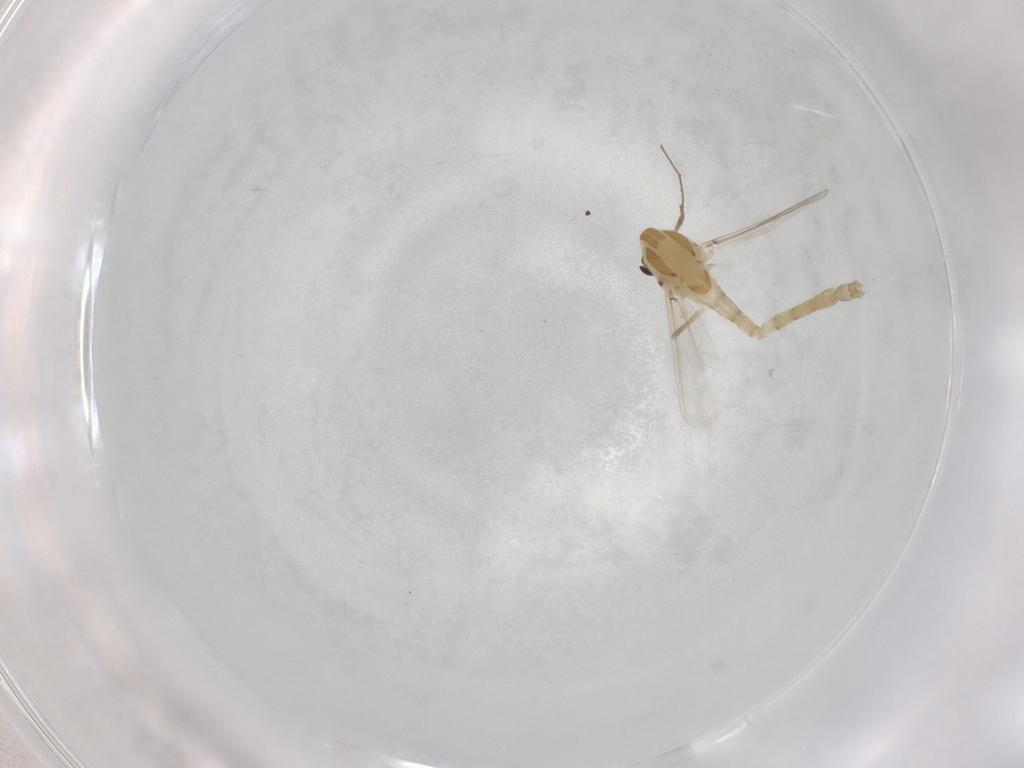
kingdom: Animalia
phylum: Arthropoda
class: Insecta
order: Diptera
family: Chironomidae
